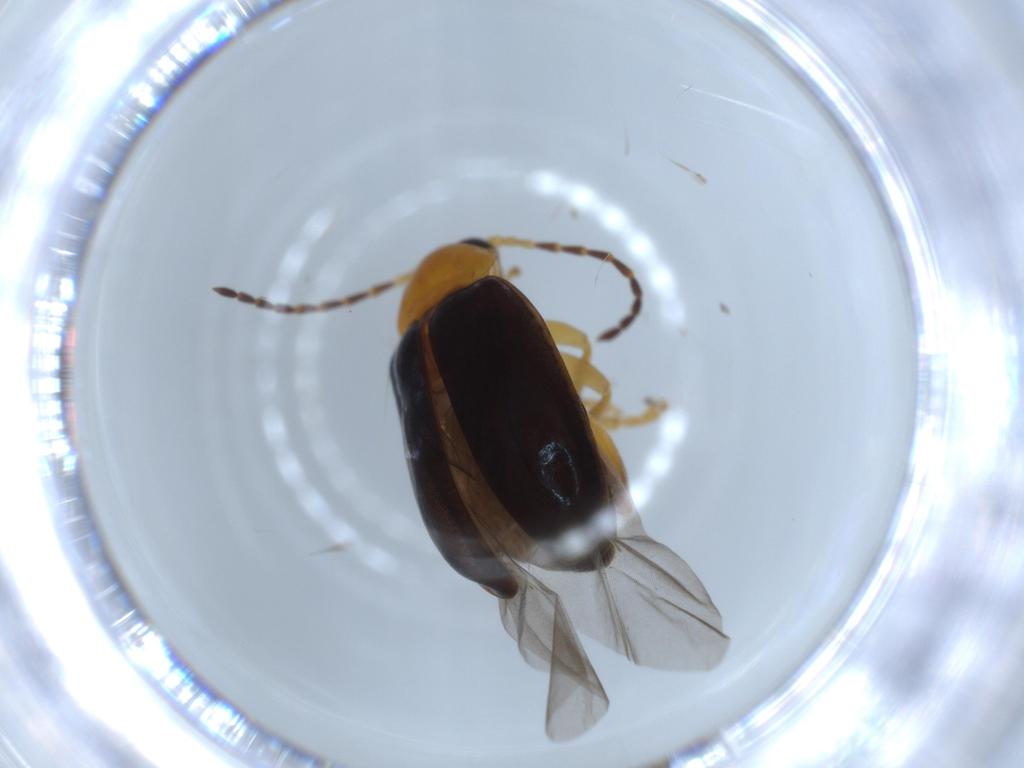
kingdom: Animalia
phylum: Arthropoda
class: Insecta
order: Coleoptera
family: Chrysomelidae
